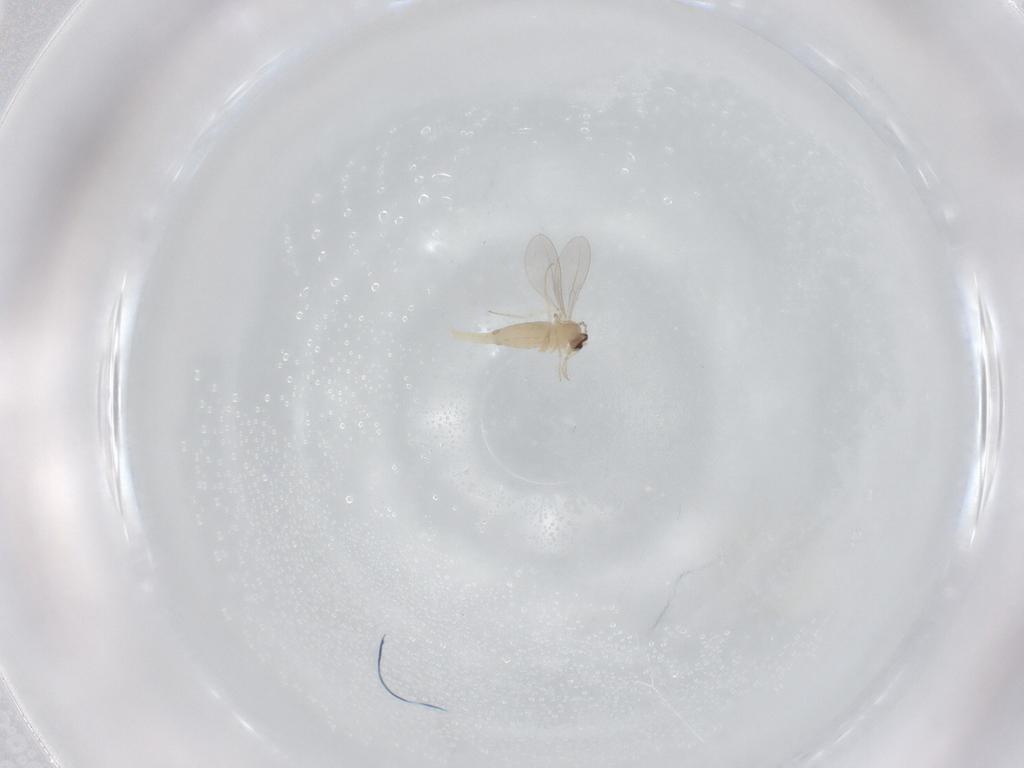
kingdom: Animalia
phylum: Arthropoda
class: Insecta
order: Diptera
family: Cecidomyiidae
